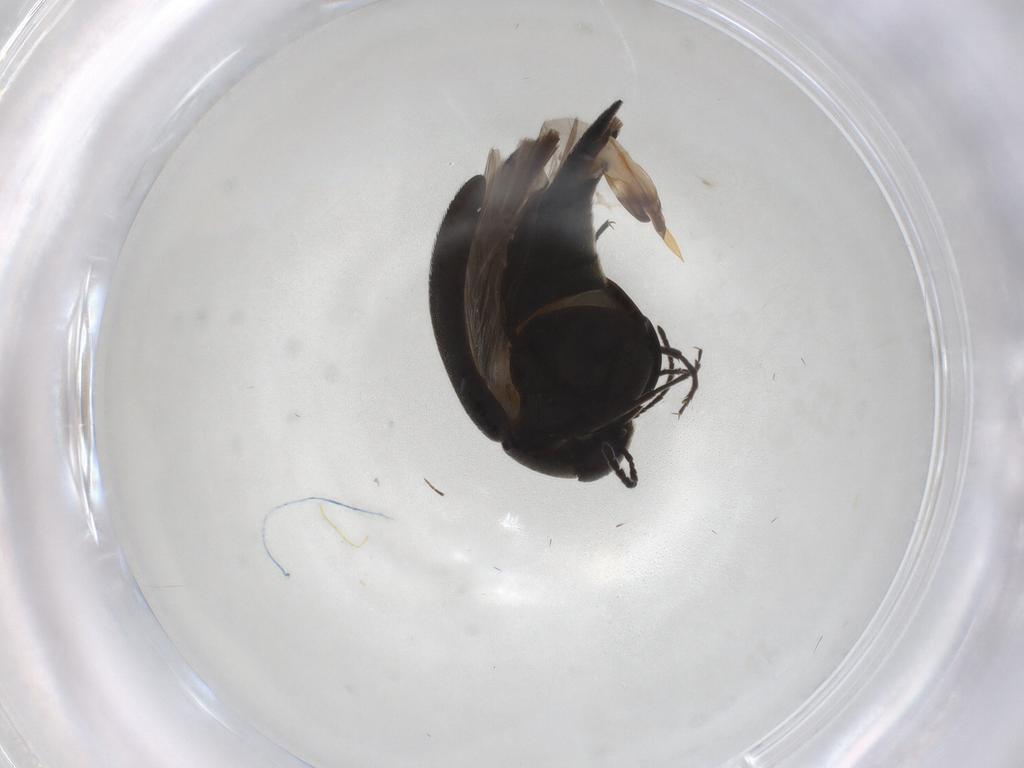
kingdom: Animalia
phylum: Arthropoda
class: Insecta
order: Coleoptera
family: Mordellidae
